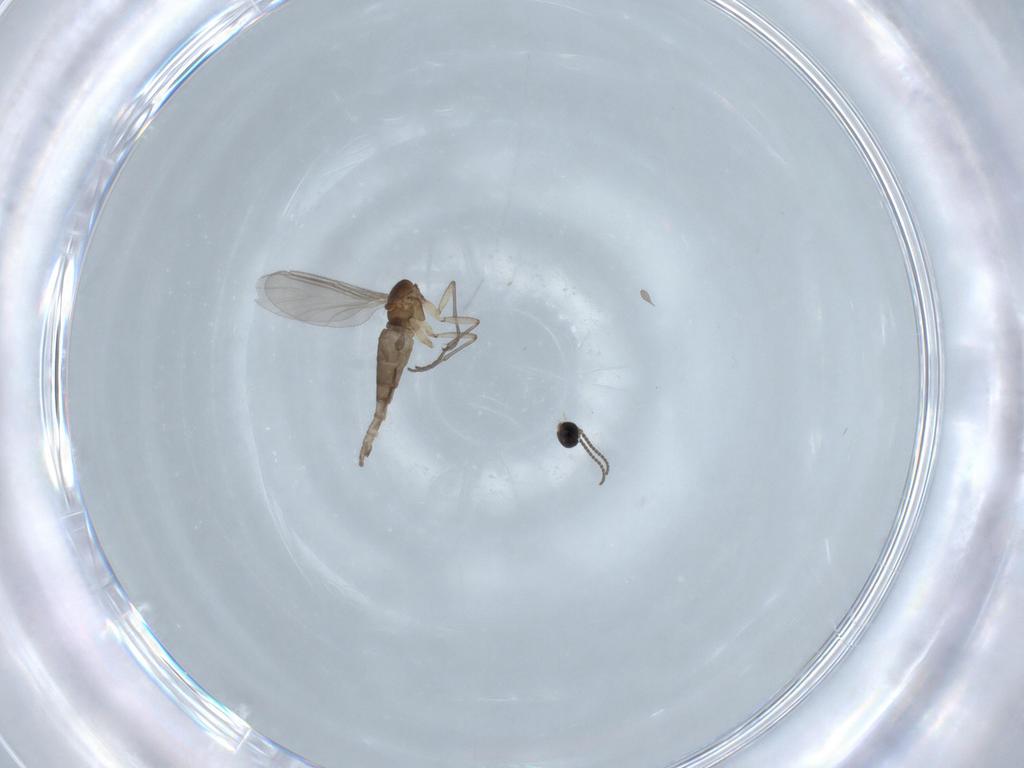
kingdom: Animalia
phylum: Arthropoda
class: Insecta
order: Diptera
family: Sciaridae
